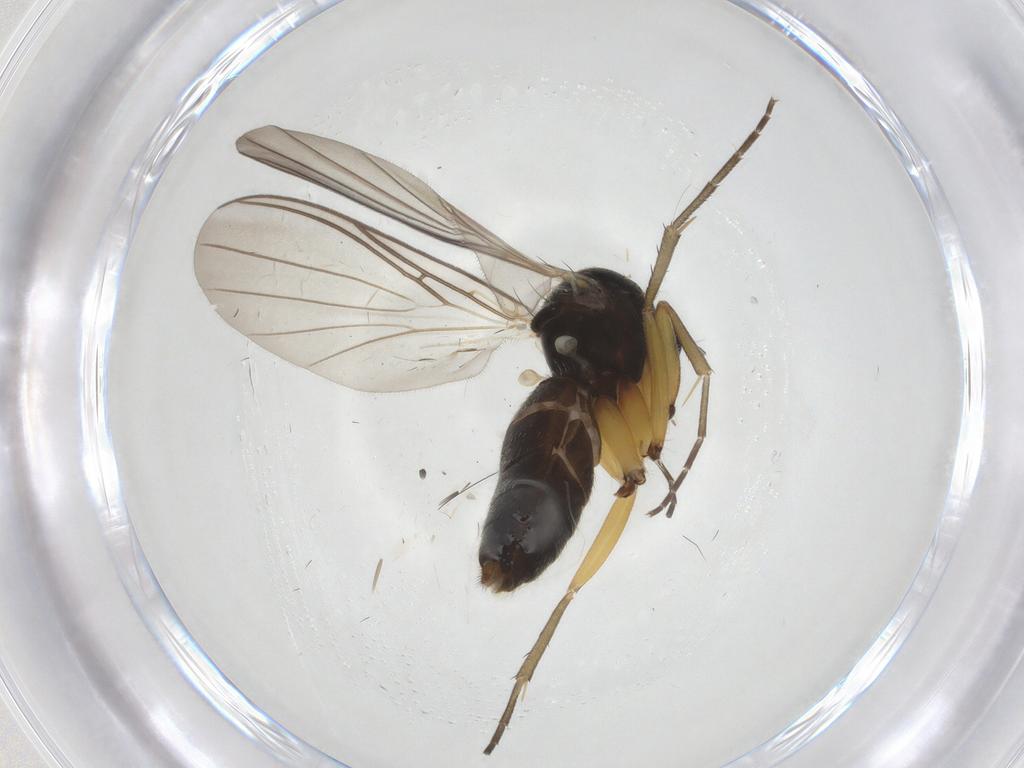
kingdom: Animalia
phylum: Arthropoda
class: Insecta
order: Diptera
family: Mycetophilidae
